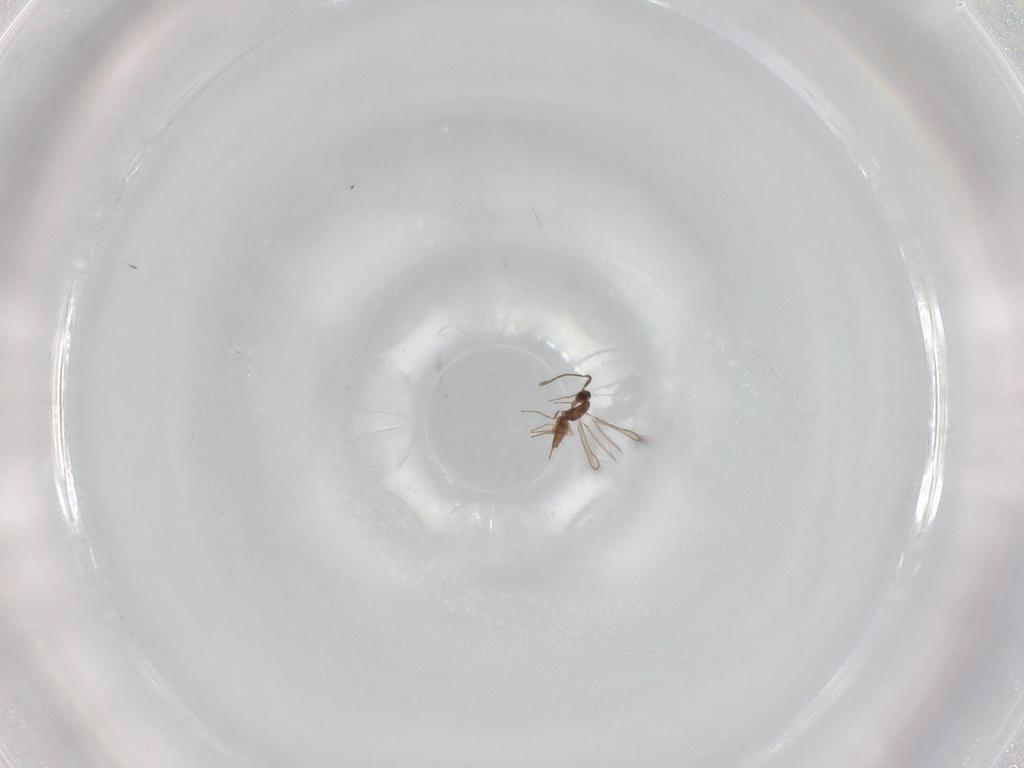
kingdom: Animalia
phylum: Arthropoda
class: Insecta
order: Hymenoptera
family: Mymaridae
